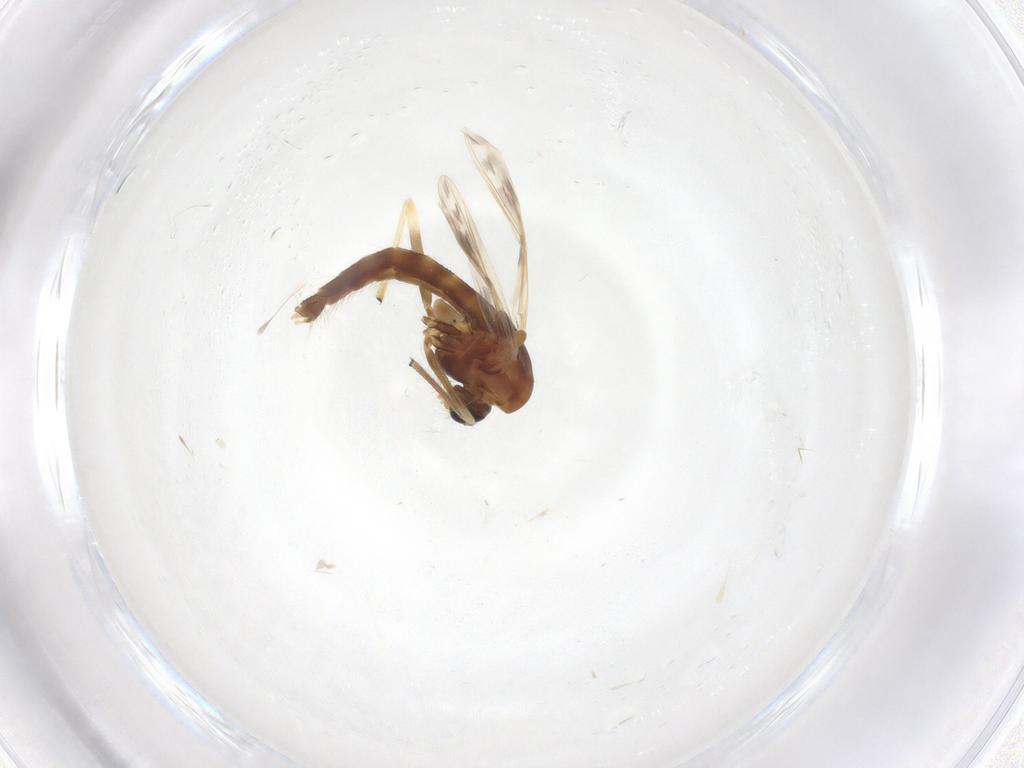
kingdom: Animalia
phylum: Arthropoda
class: Insecta
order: Diptera
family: Chironomidae
